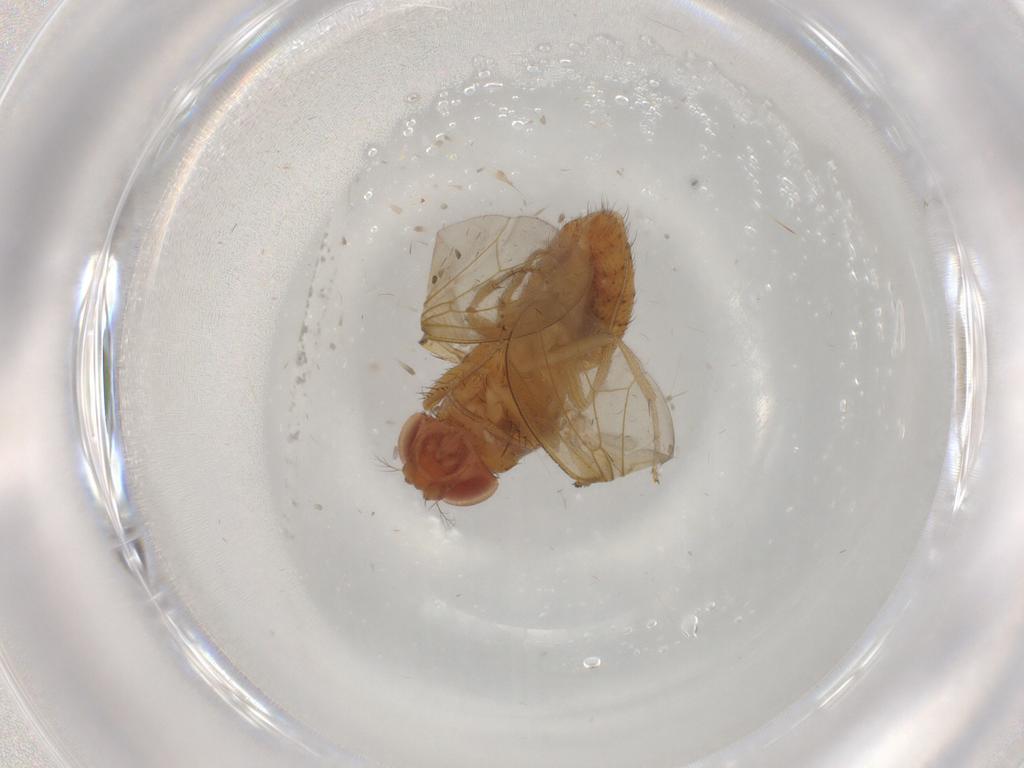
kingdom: Animalia
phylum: Arthropoda
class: Insecta
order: Diptera
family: Drosophilidae
